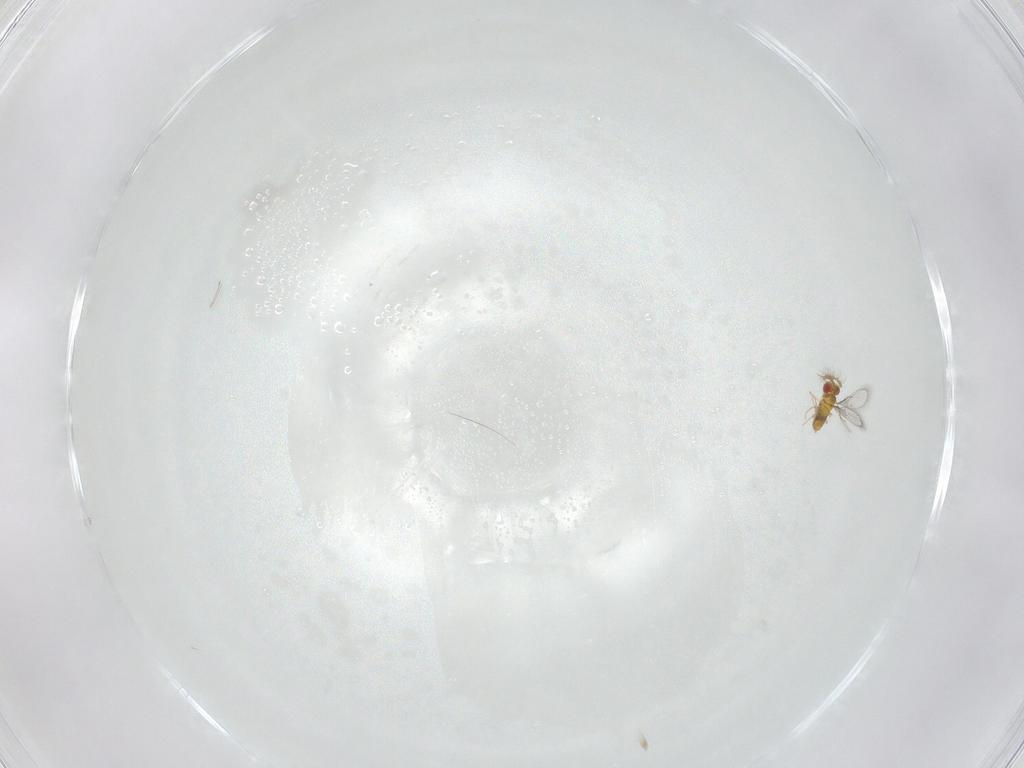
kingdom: Animalia
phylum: Arthropoda
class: Insecta
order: Hymenoptera
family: Trichogrammatidae
